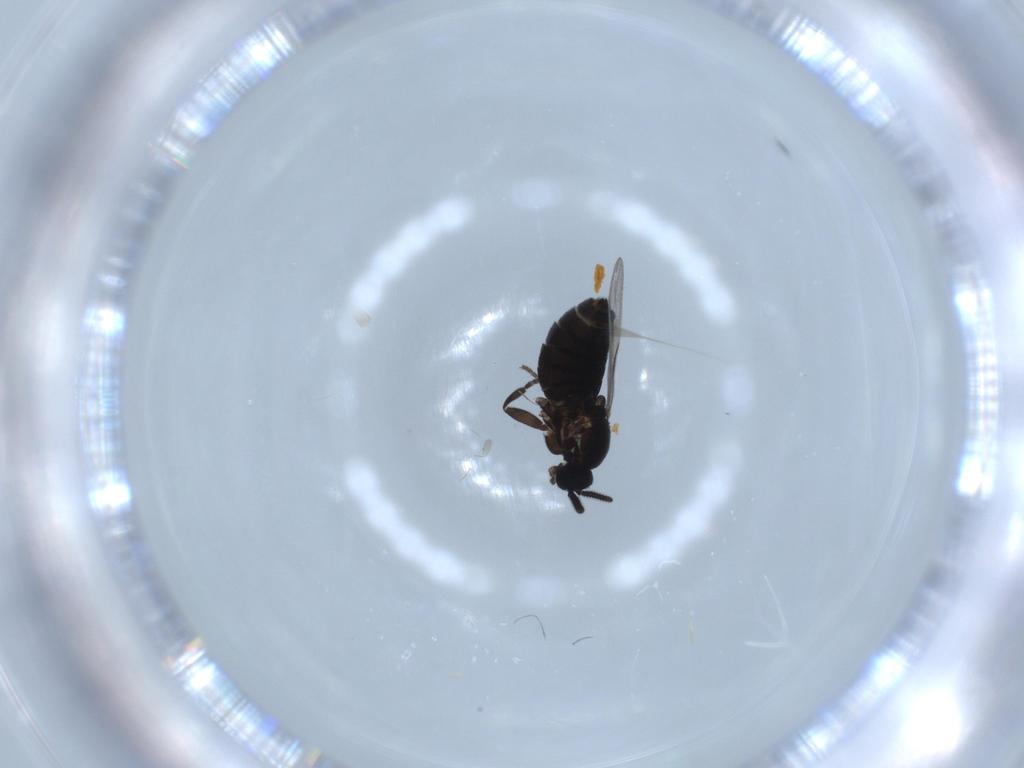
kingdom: Animalia
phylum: Arthropoda
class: Insecta
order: Diptera
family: Scatopsidae
